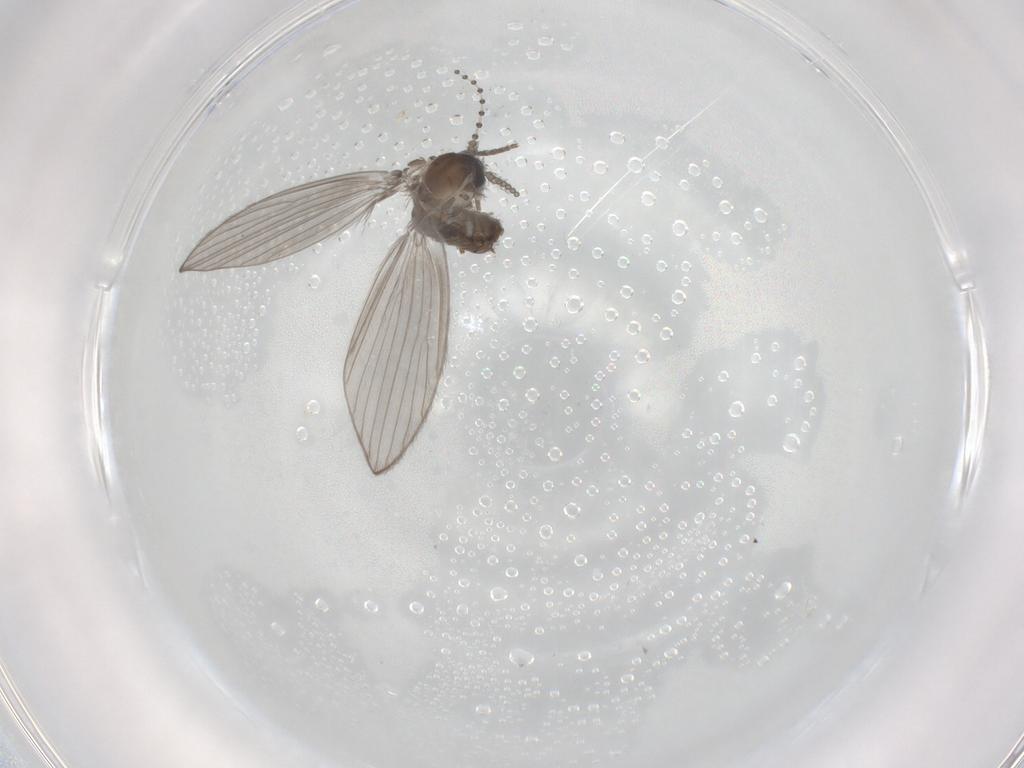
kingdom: Animalia
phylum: Arthropoda
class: Insecta
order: Diptera
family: Psychodidae
